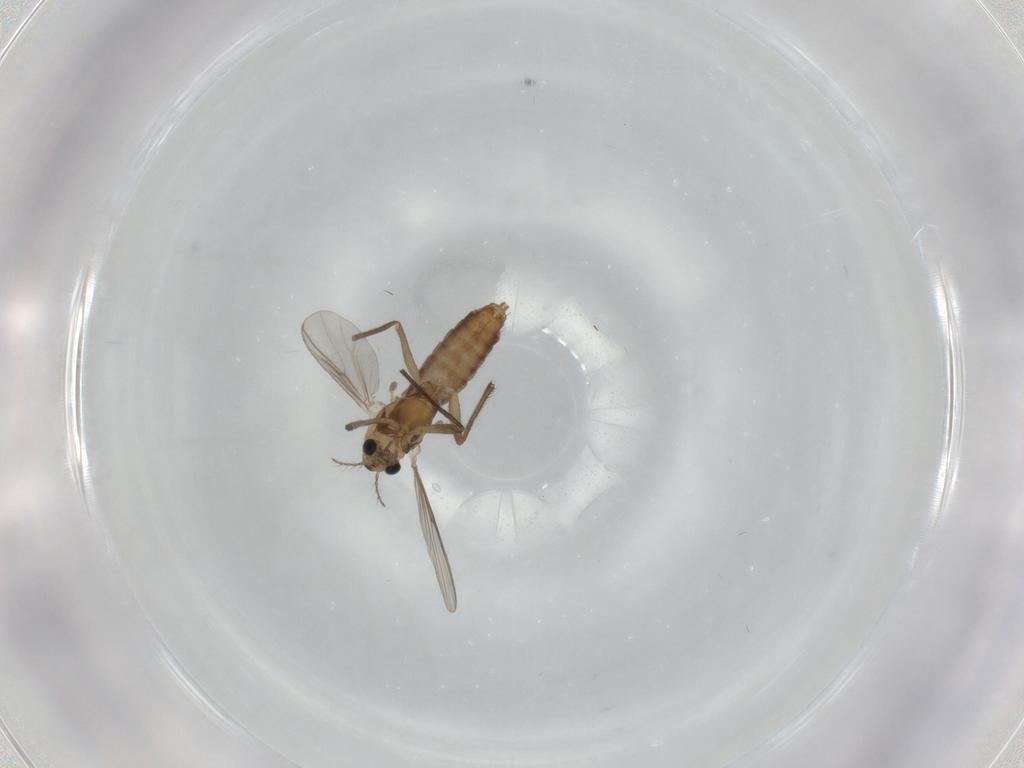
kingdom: Animalia
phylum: Arthropoda
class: Insecta
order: Diptera
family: Chironomidae
